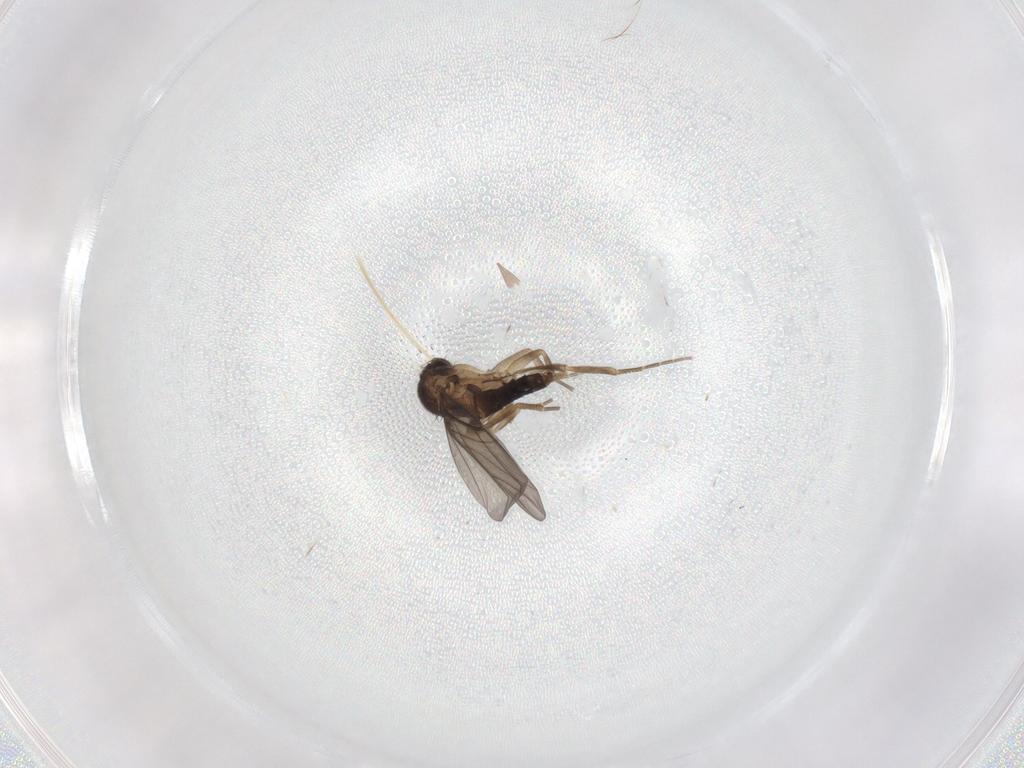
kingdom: Animalia
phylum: Arthropoda
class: Insecta
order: Diptera
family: Phoridae
